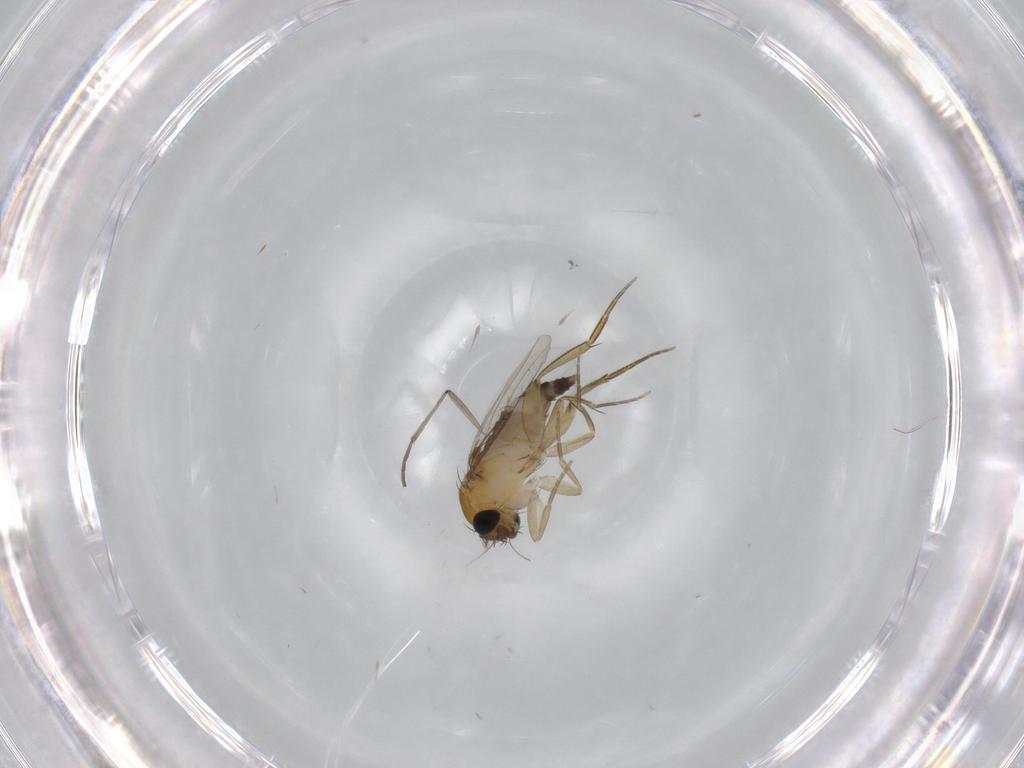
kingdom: Animalia
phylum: Arthropoda
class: Insecta
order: Diptera
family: Phoridae
